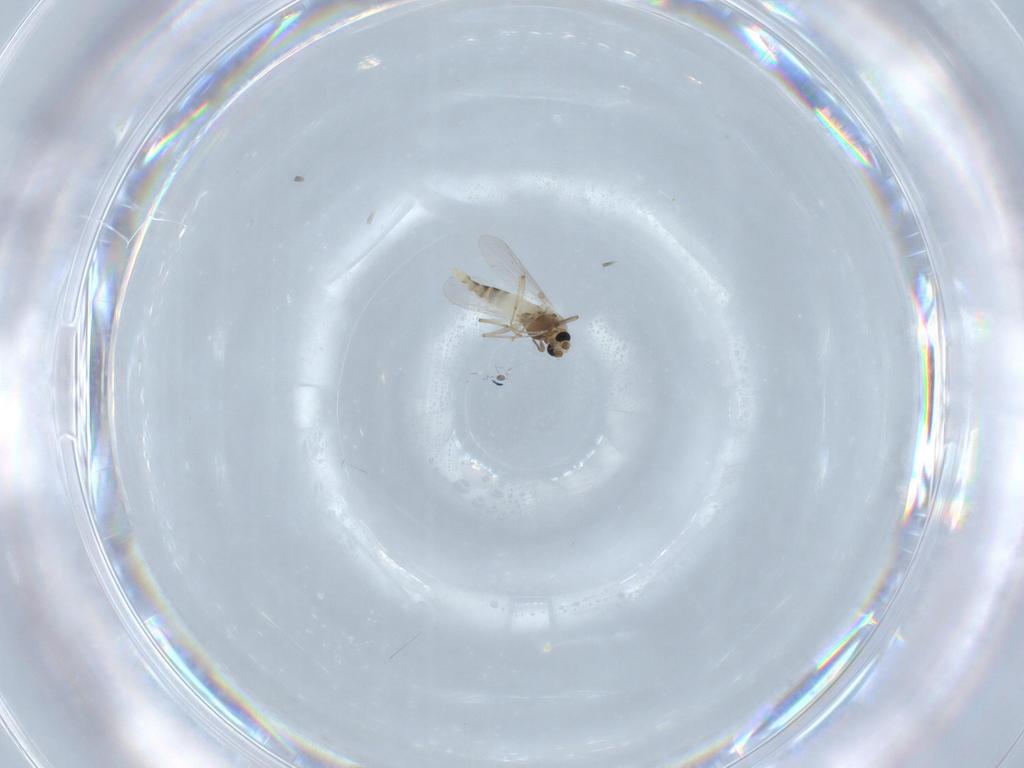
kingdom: Animalia
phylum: Arthropoda
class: Insecta
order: Diptera
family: Chironomidae
